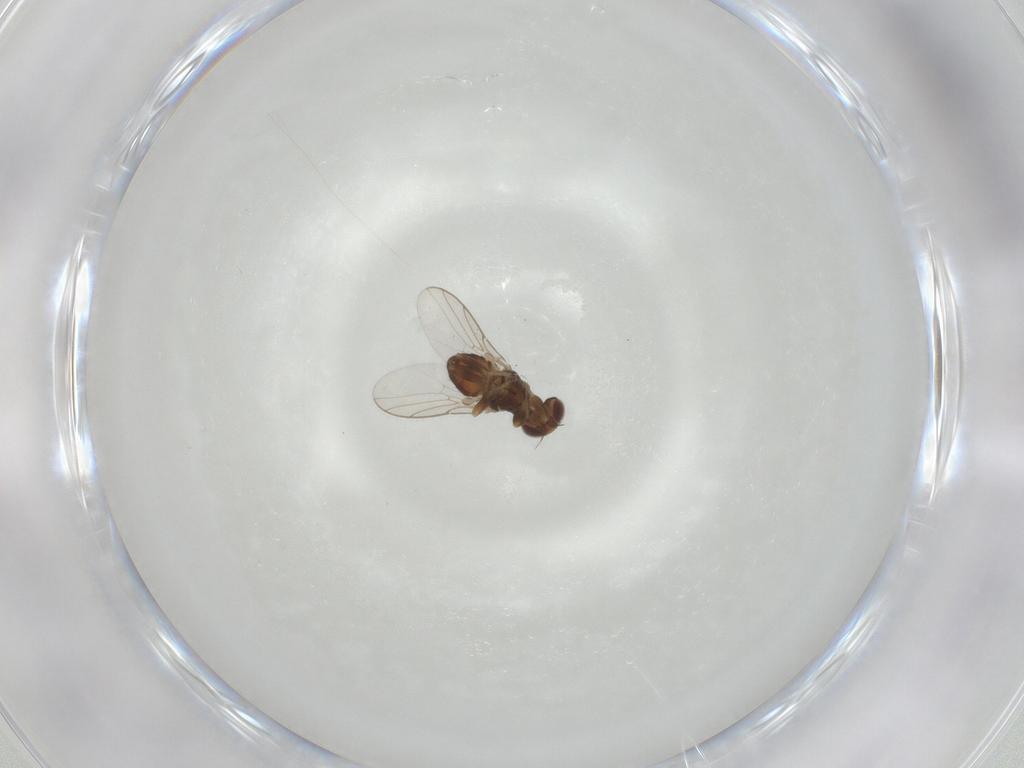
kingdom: Animalia
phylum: Arthropoda
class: Insecta
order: Diptera
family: Chloropidae
